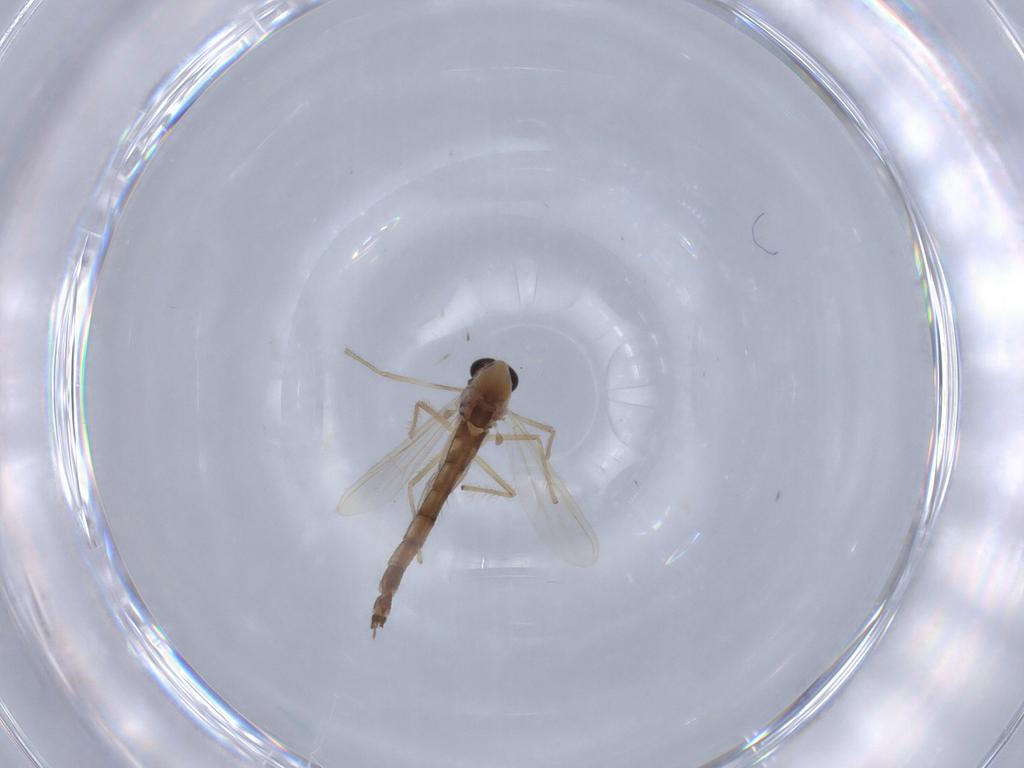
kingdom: Animalia
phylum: Arthropoda
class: Insecta
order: Diptera
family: Chironomidae
